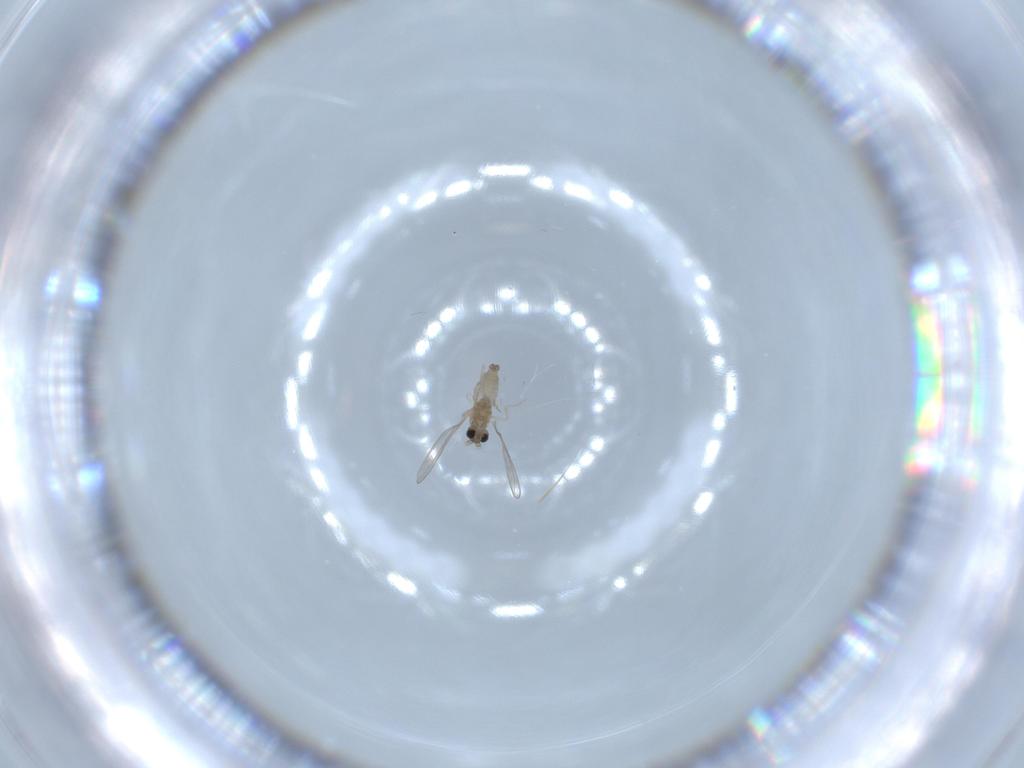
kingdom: Animalia
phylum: Arthropoda
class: Insecta
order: Diptera
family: Cecidomyiidae
